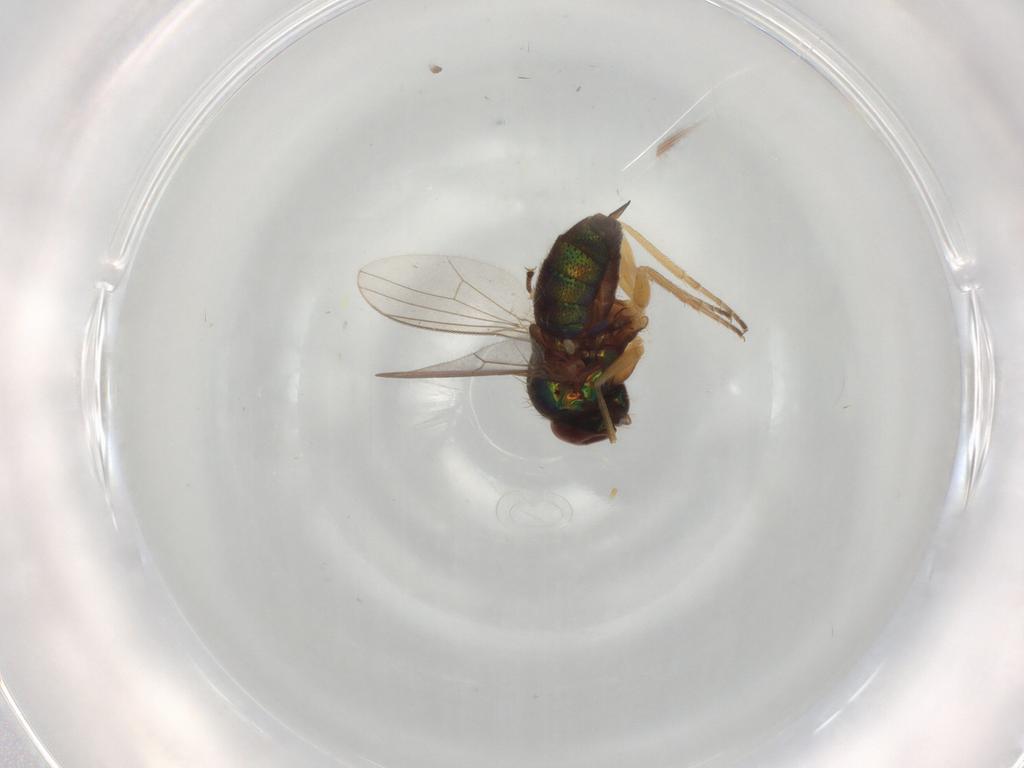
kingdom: Animalia
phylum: Arthropoda
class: Insecta
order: Diptera
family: Dolichopodidae
